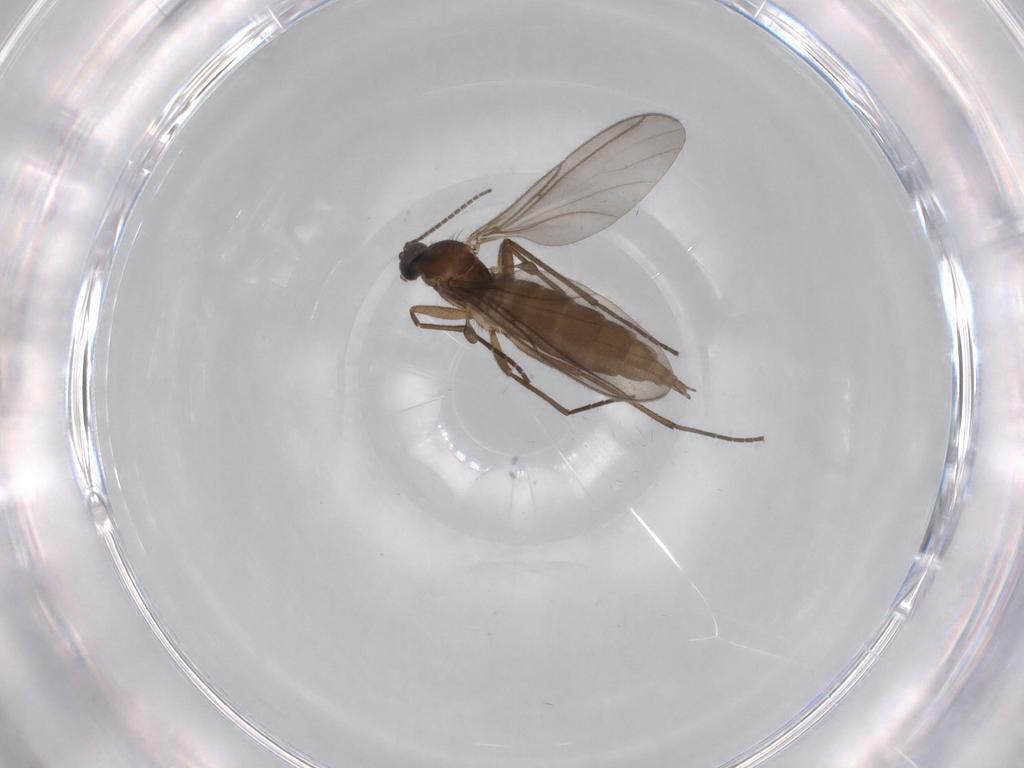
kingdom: Animalia
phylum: Arthropoda
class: Insecta
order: Diptera
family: Sciaridae
